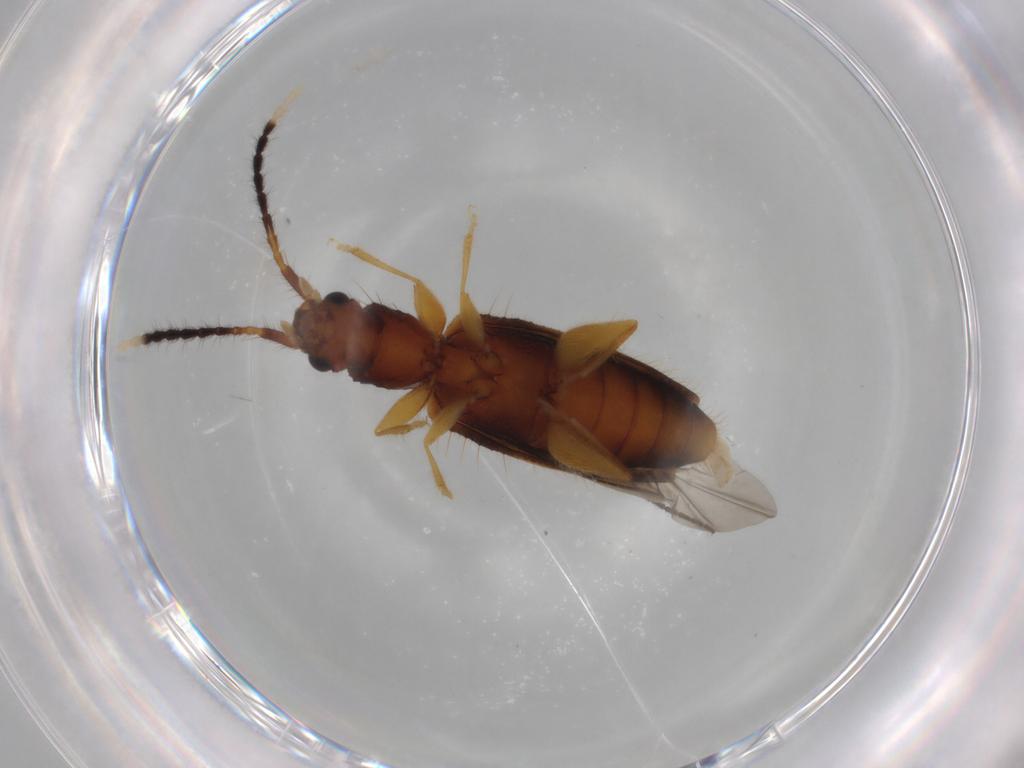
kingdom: Animalia
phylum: Arthropoda
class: Insecta
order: Coleoptera
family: Silvanidae
